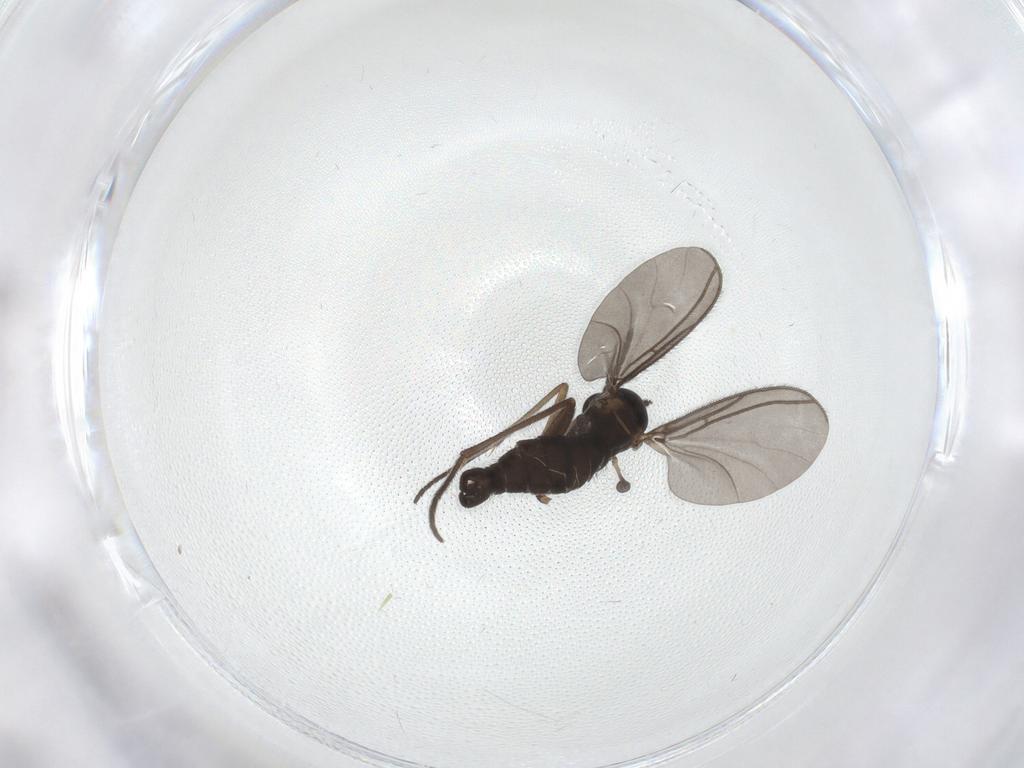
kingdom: Animalia
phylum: Arthropoda
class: Insecta
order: Diptera
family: Sciaridae
